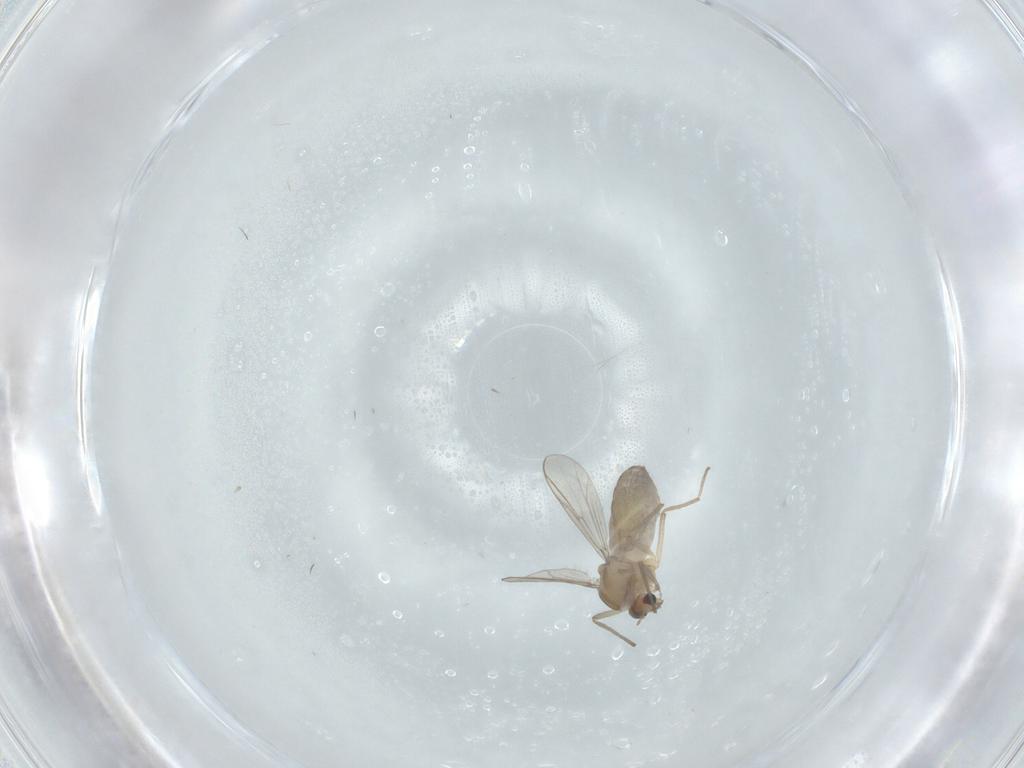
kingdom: Animalia
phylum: Arthropoda
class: Insecta
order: Diptera
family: Chironomidae
